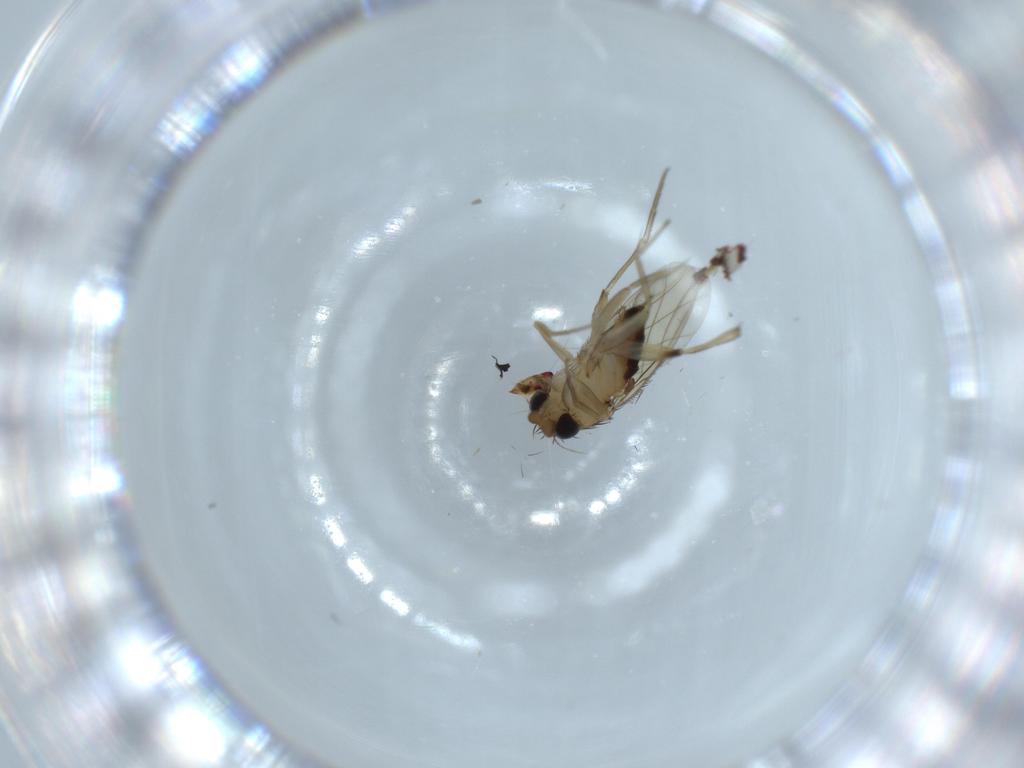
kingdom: Animalia
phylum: Arthropoda
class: Insecta
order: Diptera
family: Phoridae
